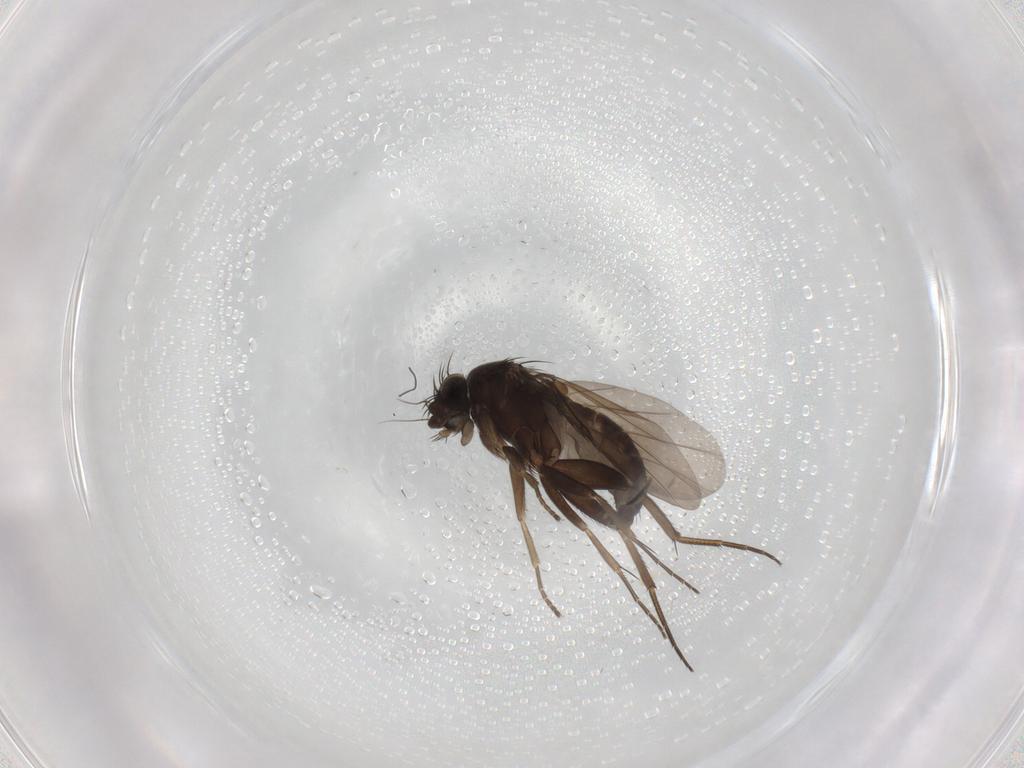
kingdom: Animalia
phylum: Arthropoda
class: Insecta
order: Diptera
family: Phoridae
